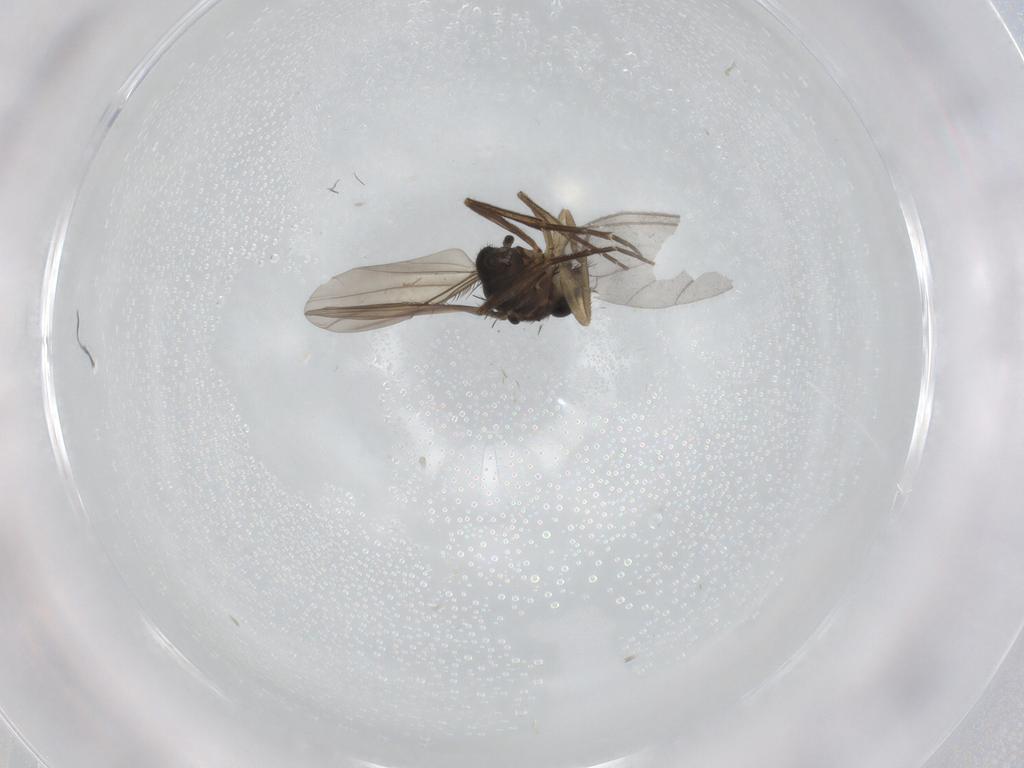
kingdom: Animalia
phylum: Arthropoda
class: Insecta
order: Diptera
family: Sciaridae
